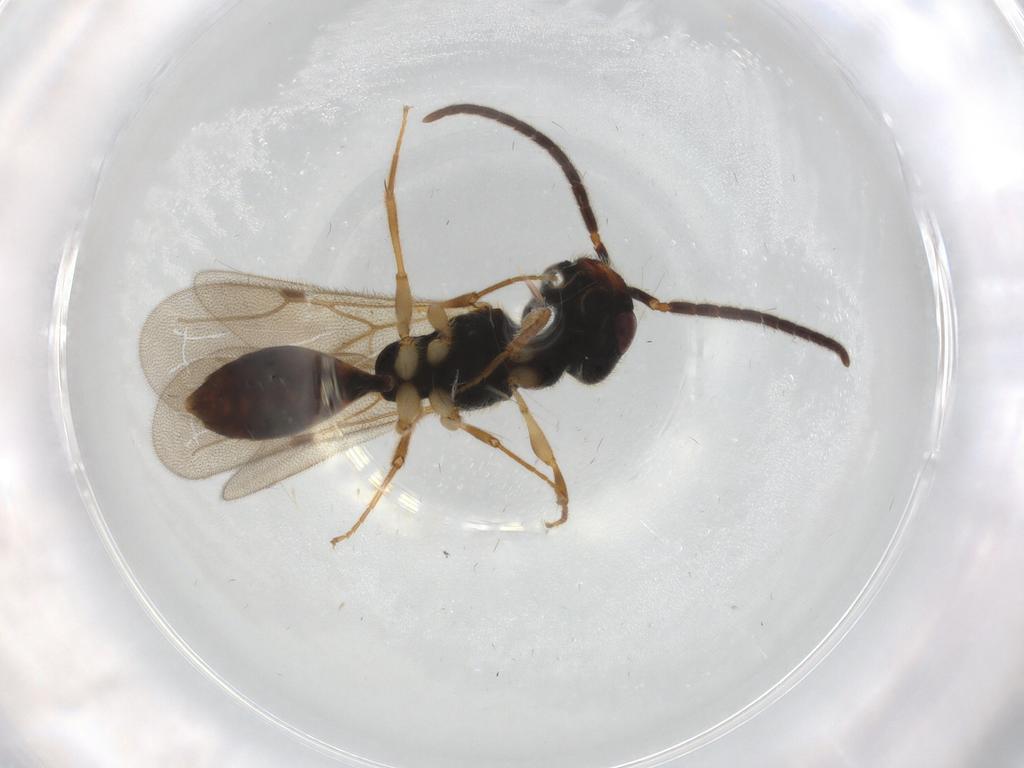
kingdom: Animalia
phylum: Arthropoda
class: Insecta
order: Hymenoptera
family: Bethylidae
